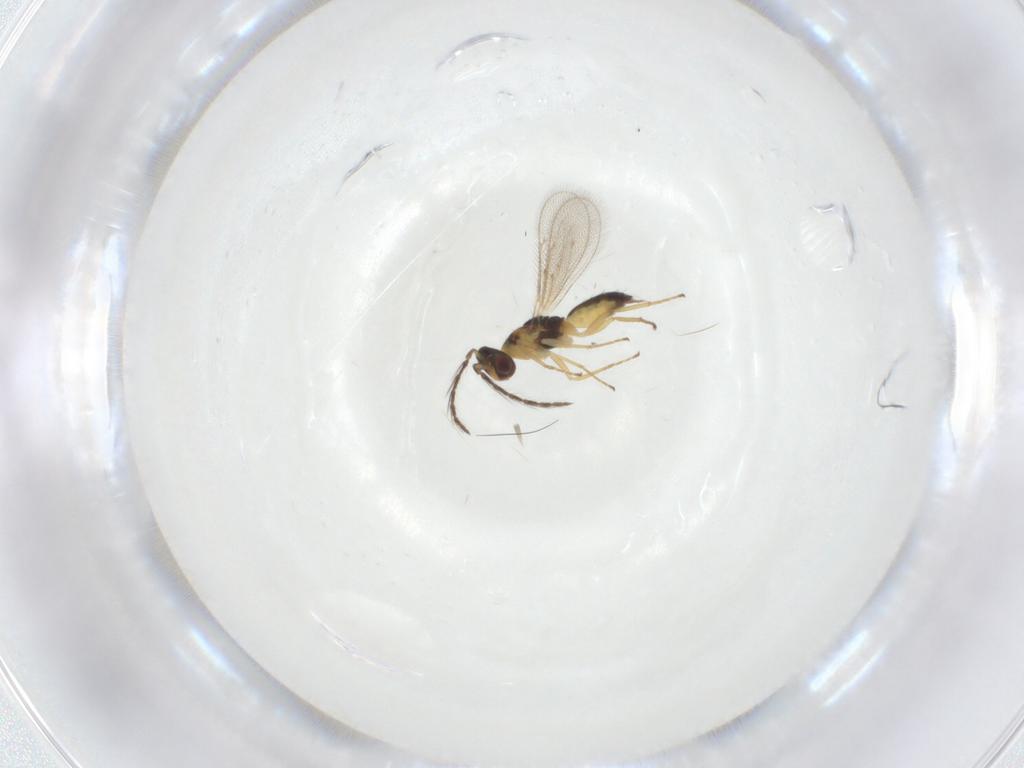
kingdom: Animalia
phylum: Arthropoda
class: Insecta
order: Hymenoptera
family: Eulophidae
